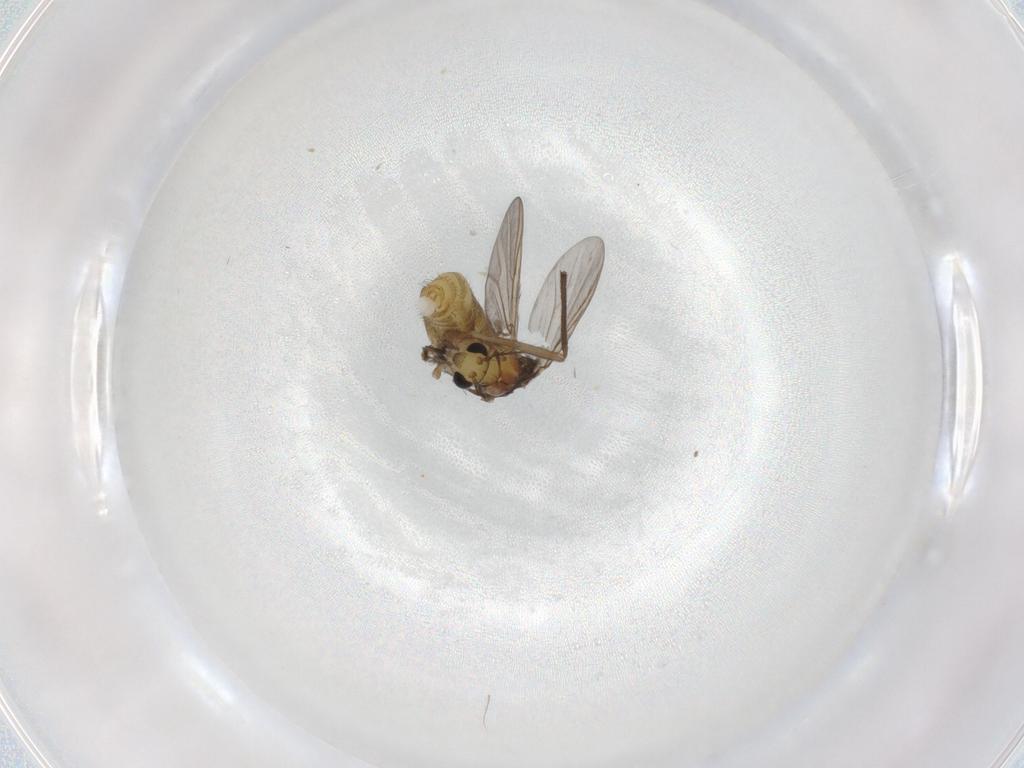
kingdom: Animalia
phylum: Arthropoda
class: Insecta
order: Diptera
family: Chironomidae
